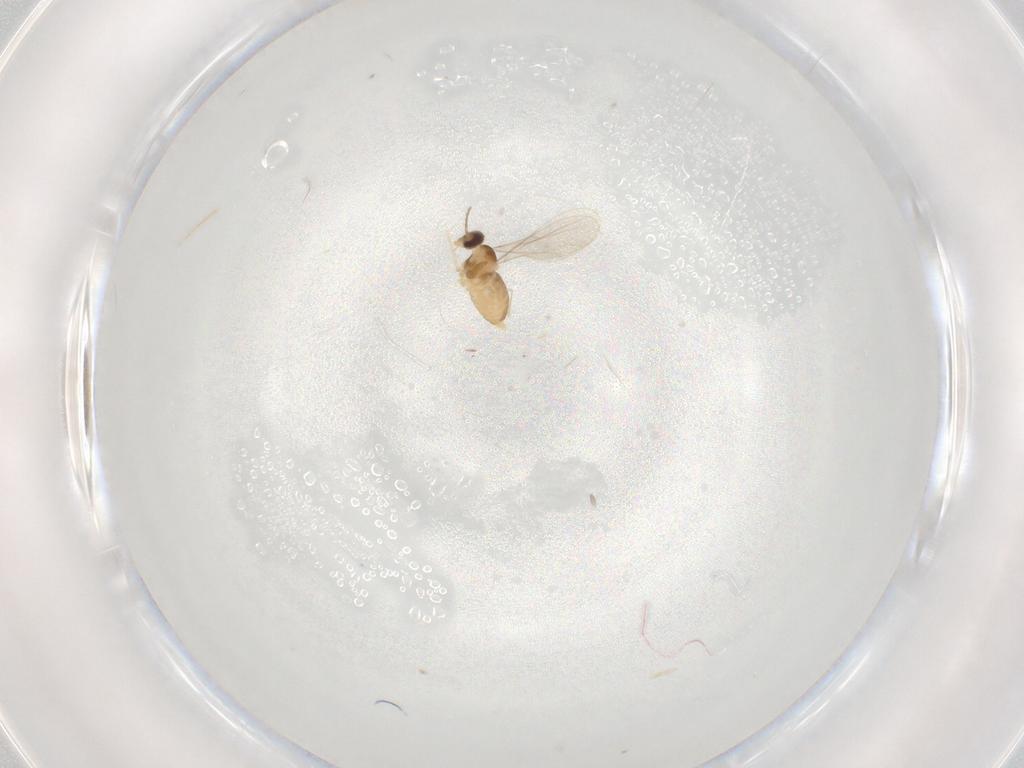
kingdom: Animalia
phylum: Arthropoda
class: Insecta
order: Diptera
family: Cecidomyiidae
